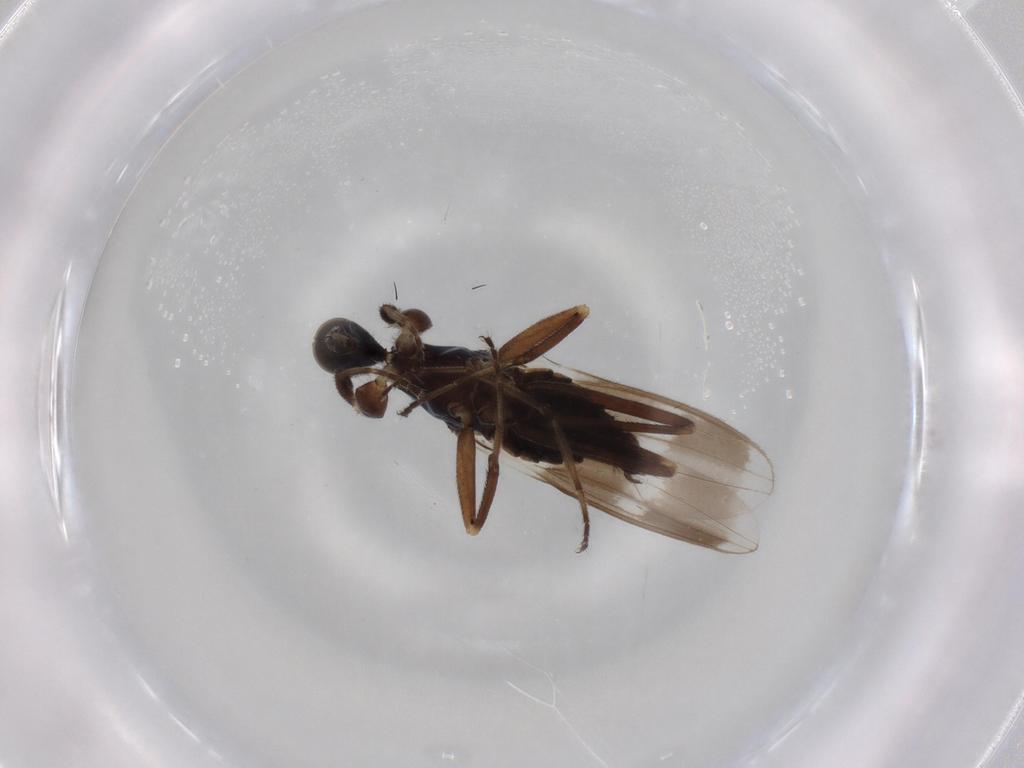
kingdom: Animalia
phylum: Arthropoda
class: Insecta
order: Diptera
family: Hybotidae
